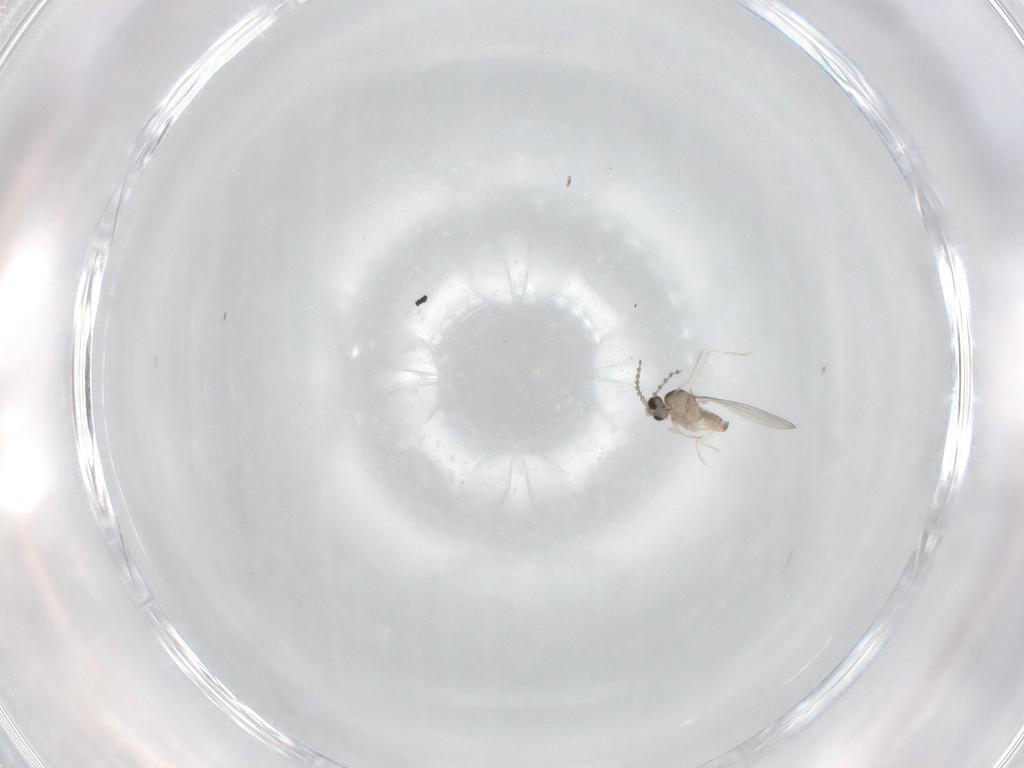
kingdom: Animalia
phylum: Arthropoda
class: Insecta
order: Diptera
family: Cecidomyiidae
